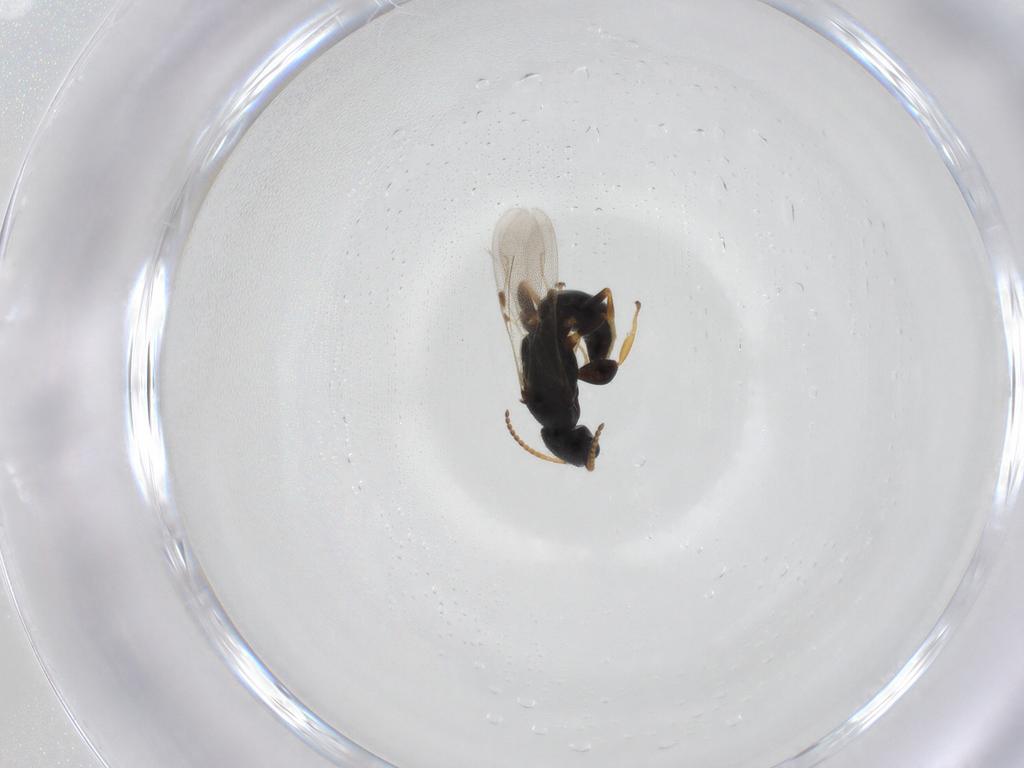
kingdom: Animalia
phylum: Arthropoda
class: Insecta
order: Hymenoptera
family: Bethylidae
